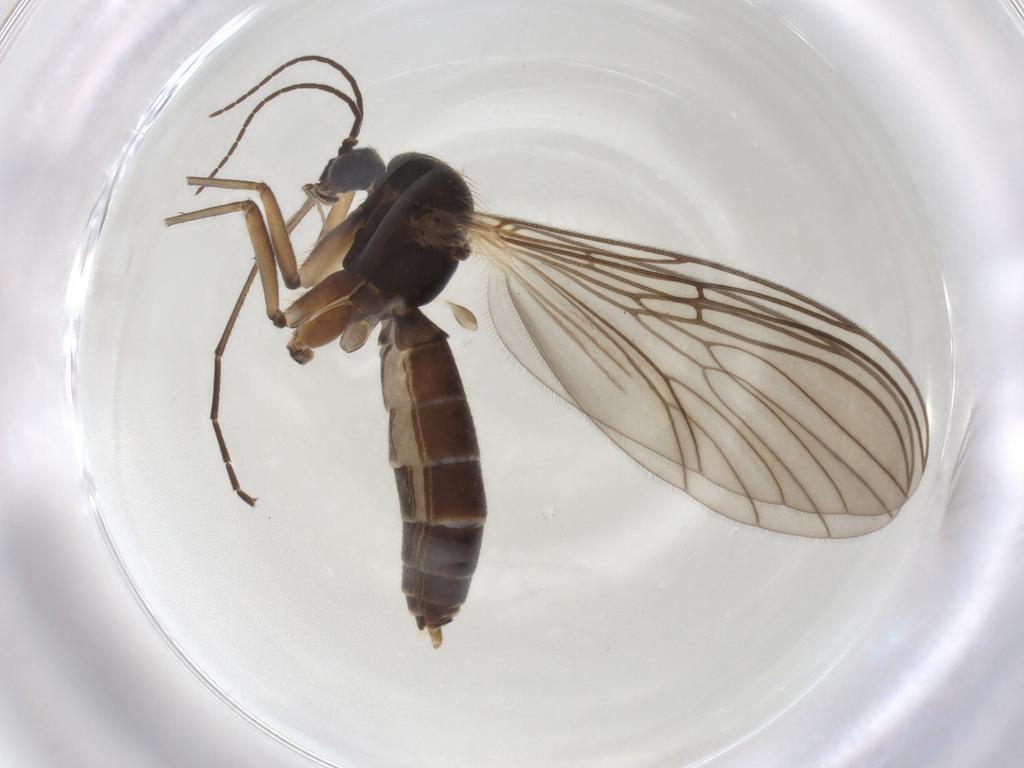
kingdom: Animalia
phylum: Arthropoda
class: Insecta
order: Diptera
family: Mycetophilidae
